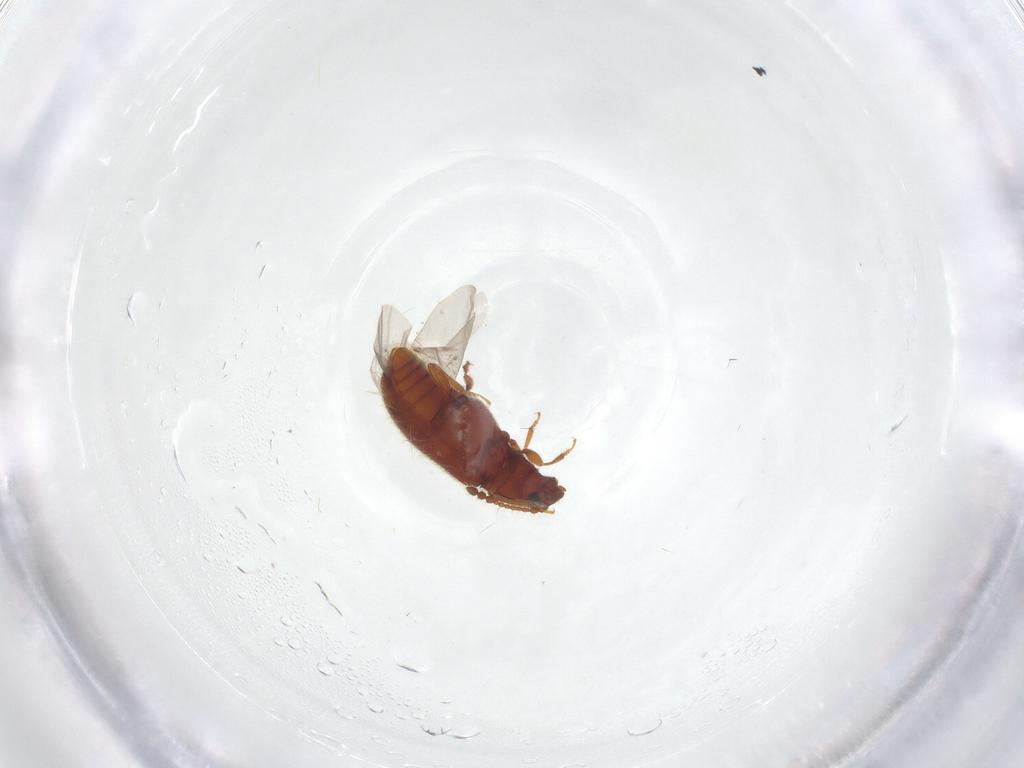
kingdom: Animalia
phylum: Arthropoda
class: Insecta
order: Coleoptera
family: Cryptophagidae
